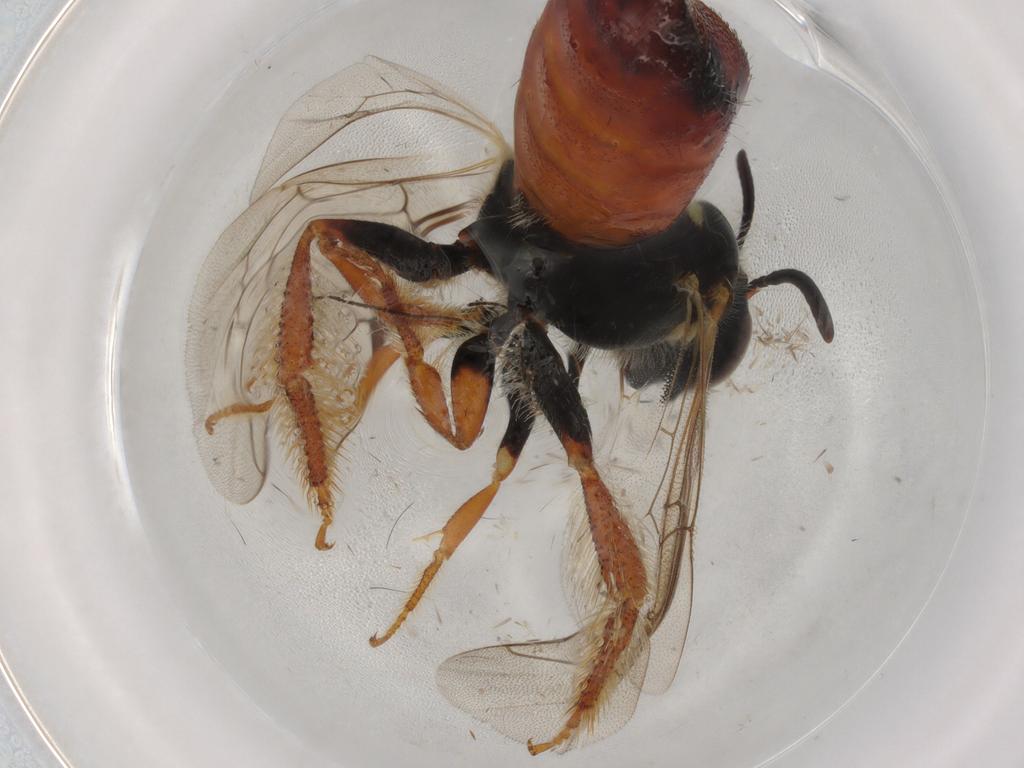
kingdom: Animalia
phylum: Arthropoda
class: Insecta
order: Hymenoptera
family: Scelionidae
